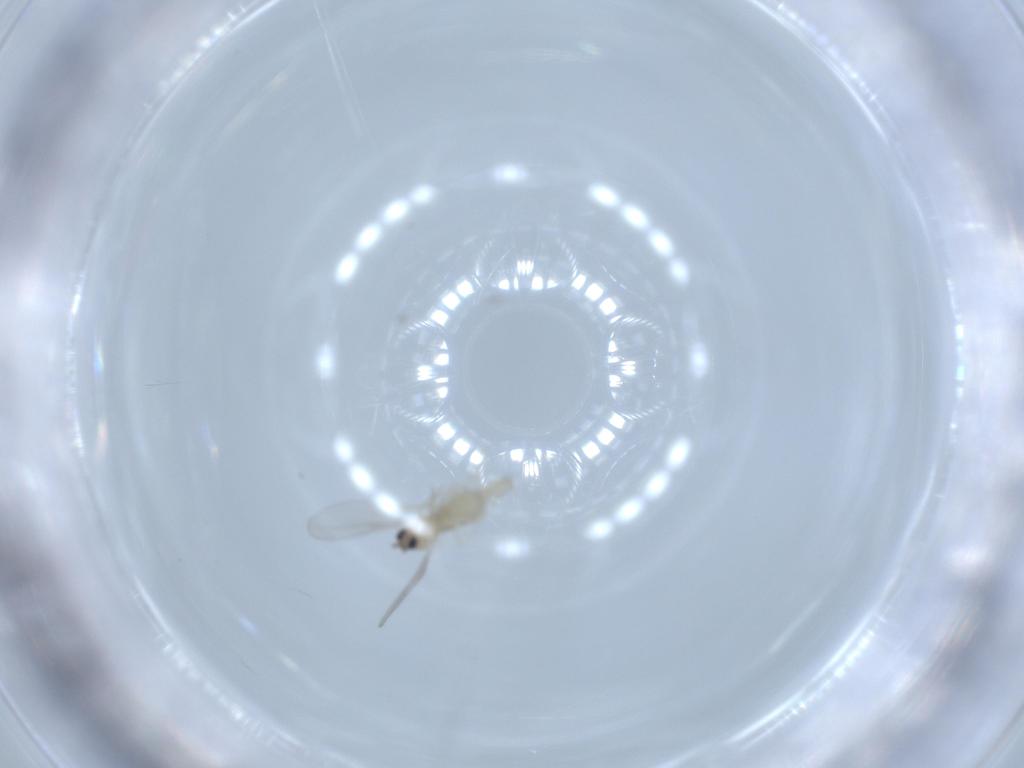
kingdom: Animalia
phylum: Arthropoda
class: Insecta
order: Diptera
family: Cecidomyiidae
